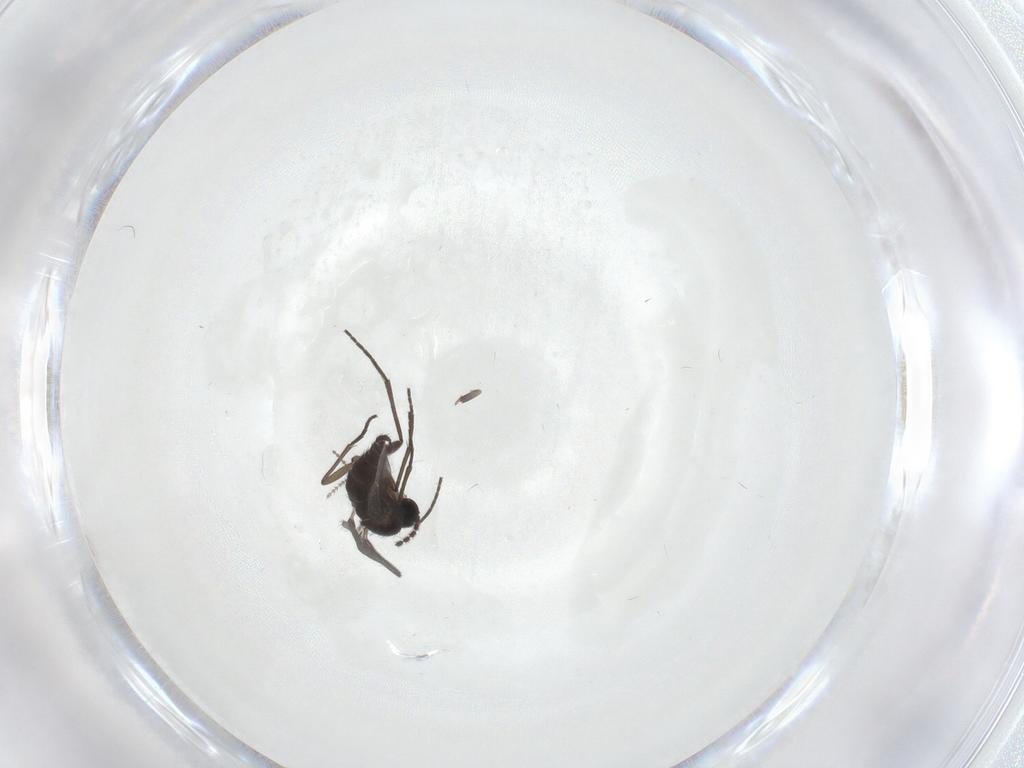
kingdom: Animalia
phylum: Arthropoda
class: Insecta
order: Diptera
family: Sciaridae
